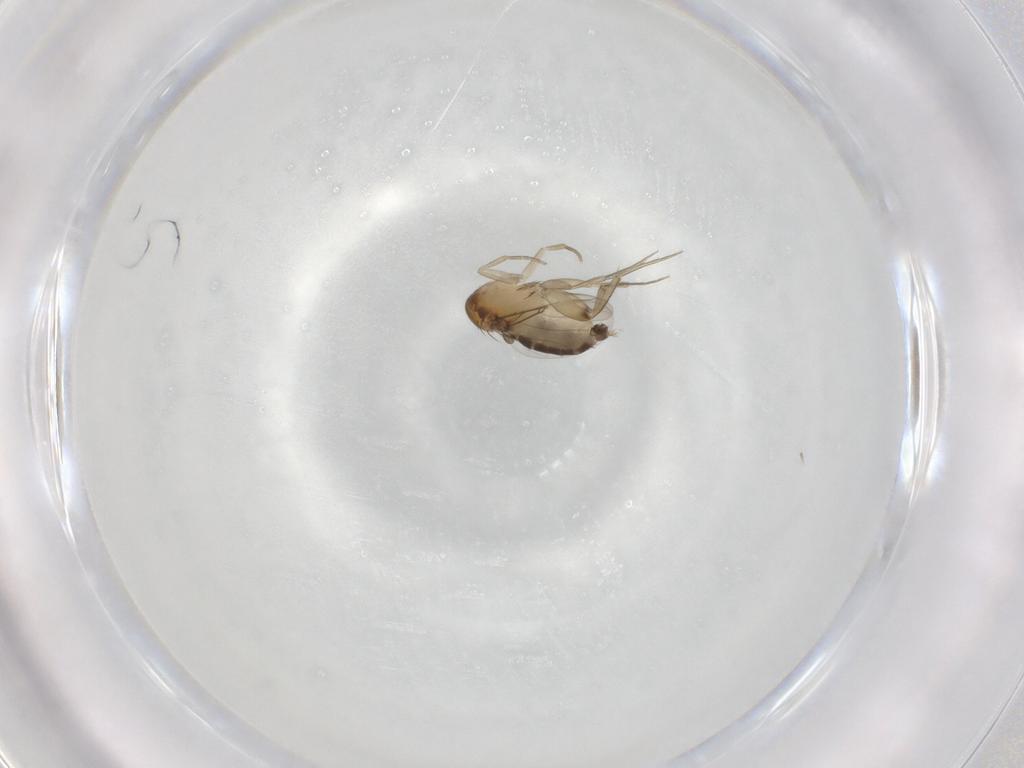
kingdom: Animalia
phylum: Arthropoda
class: Insecta
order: Diptera
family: Phoridae
